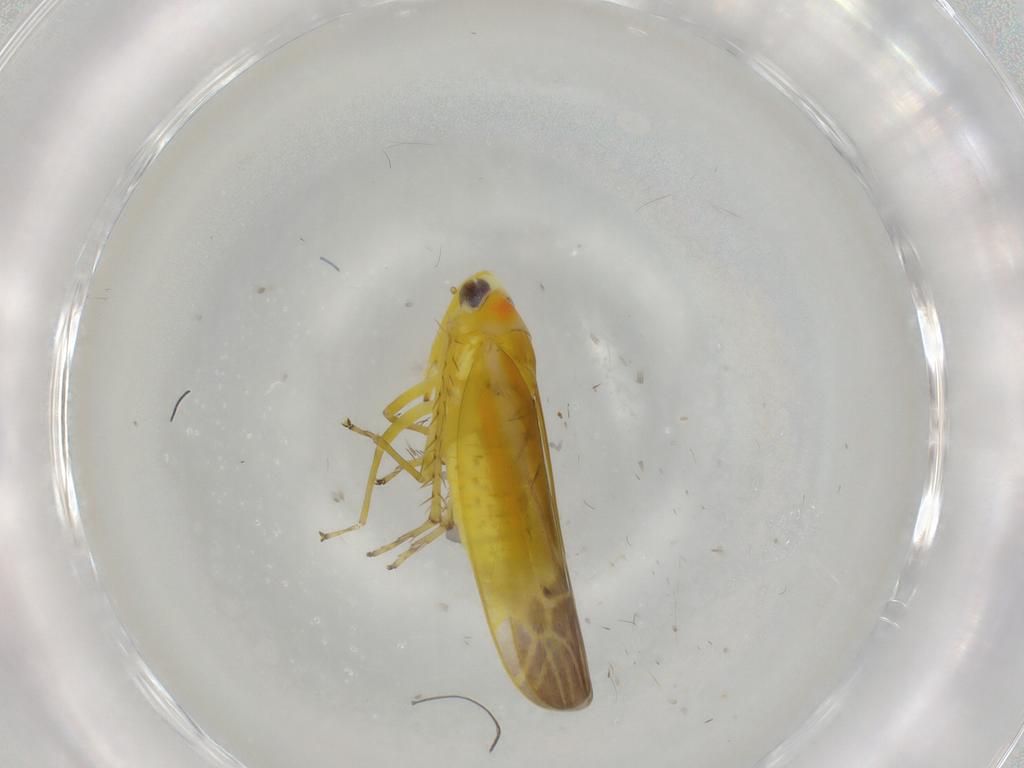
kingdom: Animalia
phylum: Arthropoda
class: Insecta
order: Hemiptera
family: Cicadellidae
